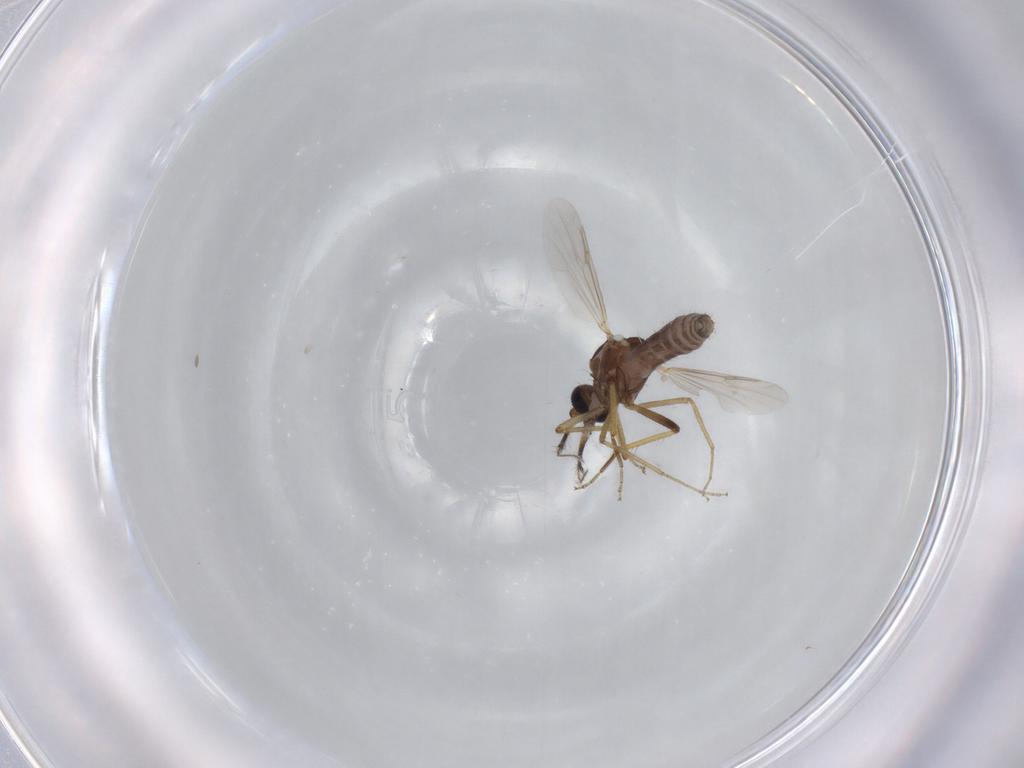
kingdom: Animalia
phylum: Arthropoda
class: Insecta
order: Diptera
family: Ceratopogonidae
